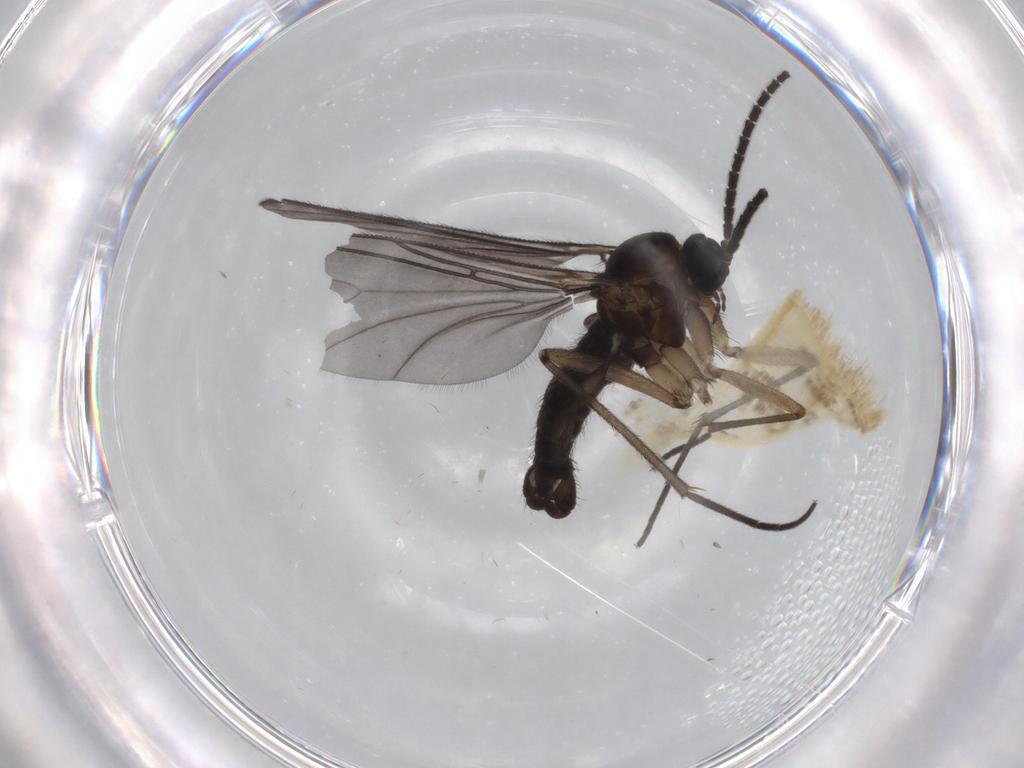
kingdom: Animalia
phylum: Arthropoda
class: Insecta
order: Diptera
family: Sciaridae
